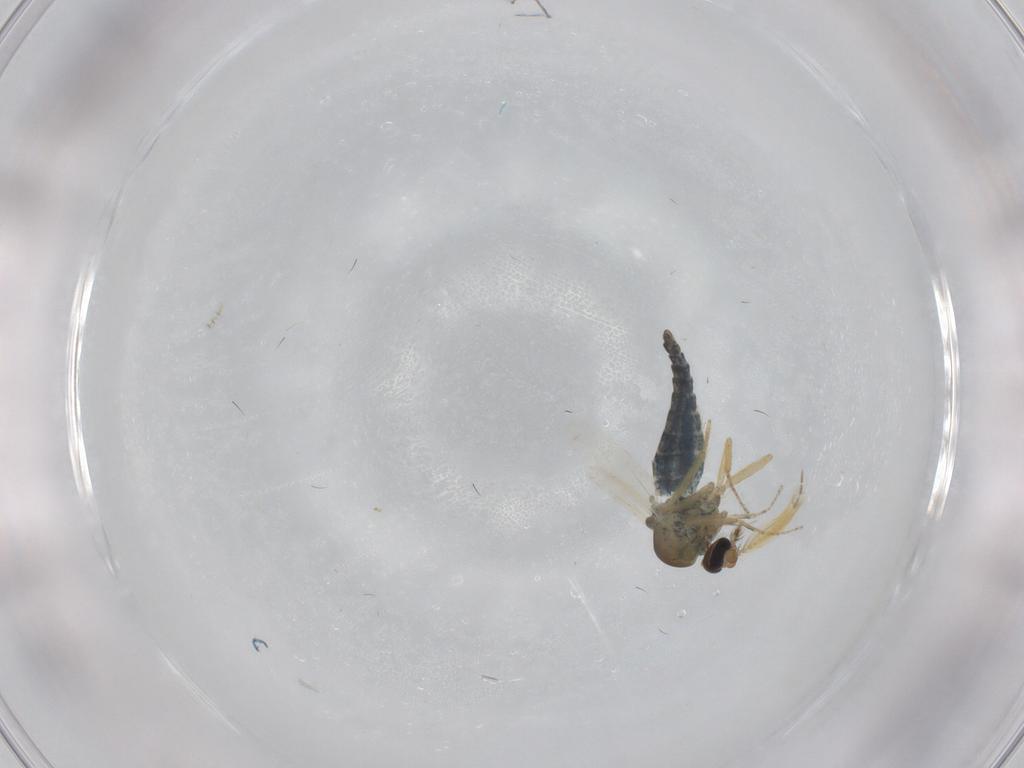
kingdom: Animalia
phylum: Arthropoda
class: Insecta
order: Diptera
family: Ceratopogonidae
